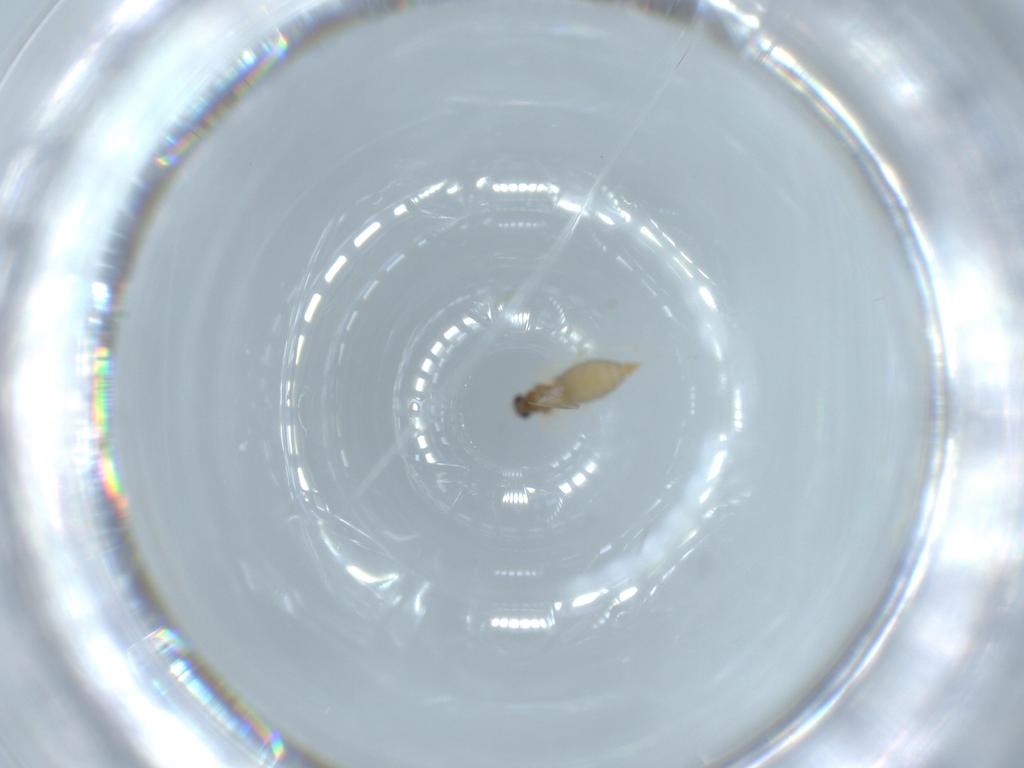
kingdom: Animalia
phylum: Arthropoda
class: Insecta
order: Diptera
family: Cecidomyiidae
